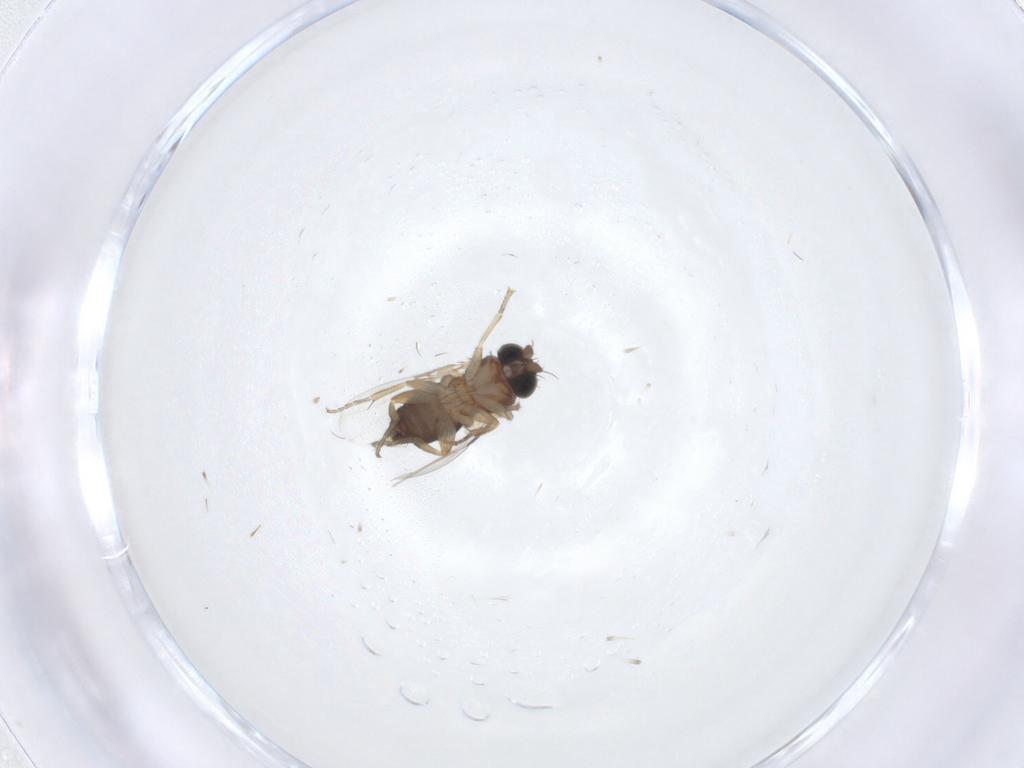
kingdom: Animalia
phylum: Arthropoda
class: Insecta
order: Diptera
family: Phoridae
